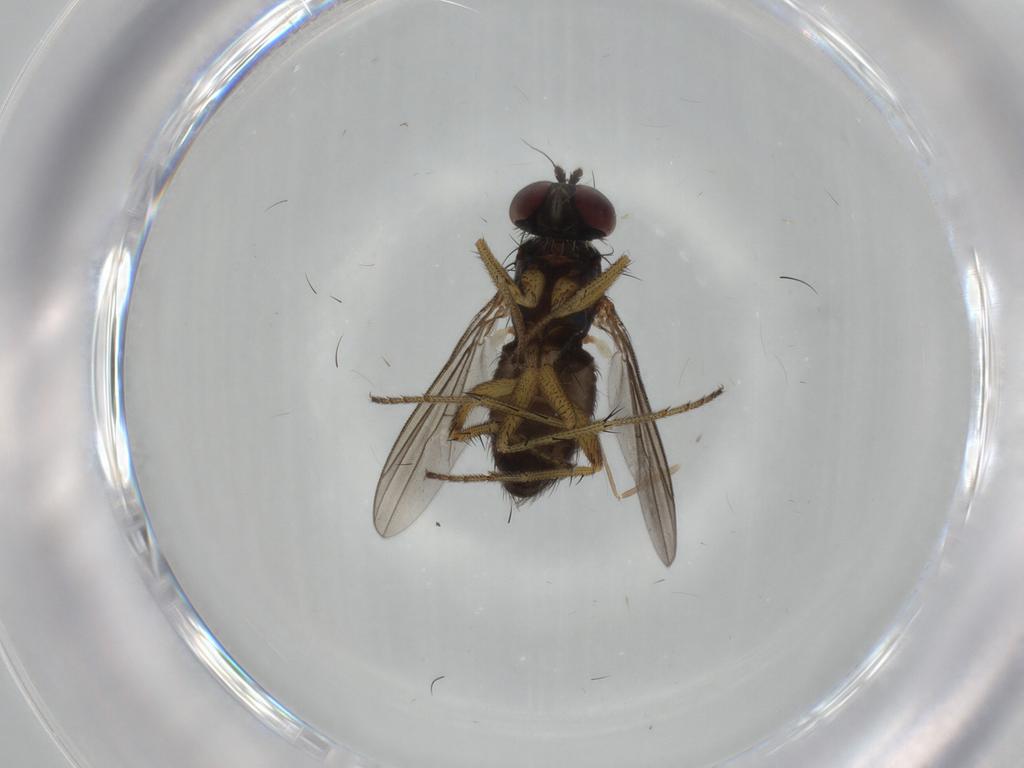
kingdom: Animalia
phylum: Arthropoda
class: Insecta
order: Diptera
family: Dolichopodidae
